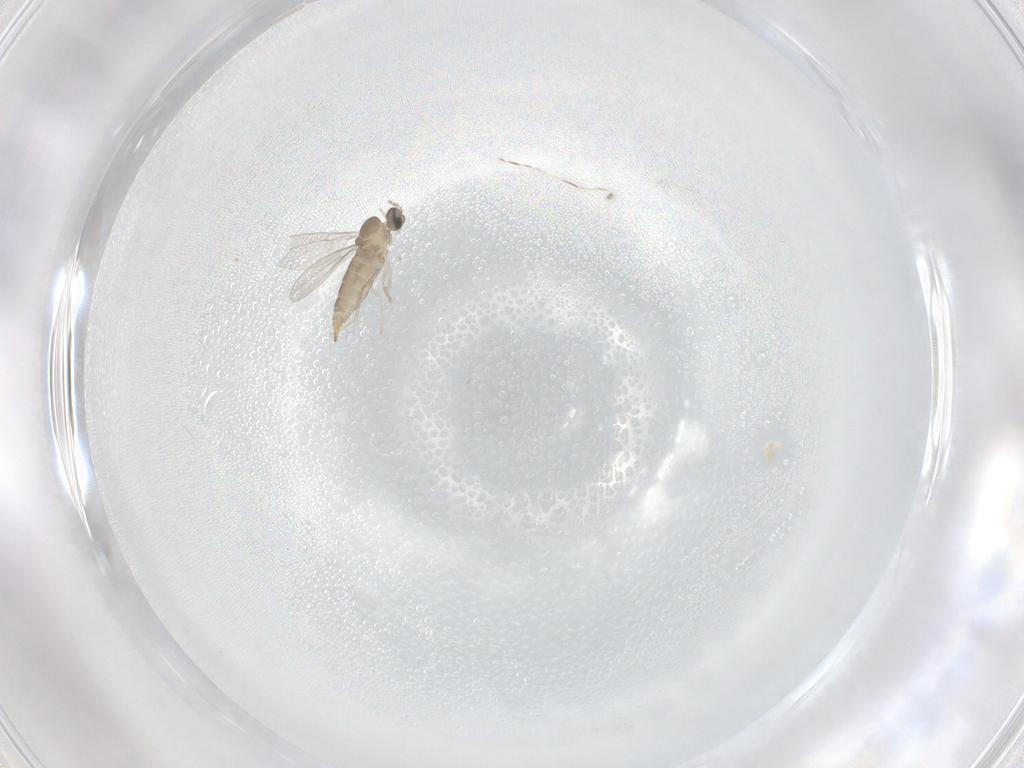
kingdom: Animalia
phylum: Arthropoda
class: Insecta
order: Diptera
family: Cecidomyiidae
